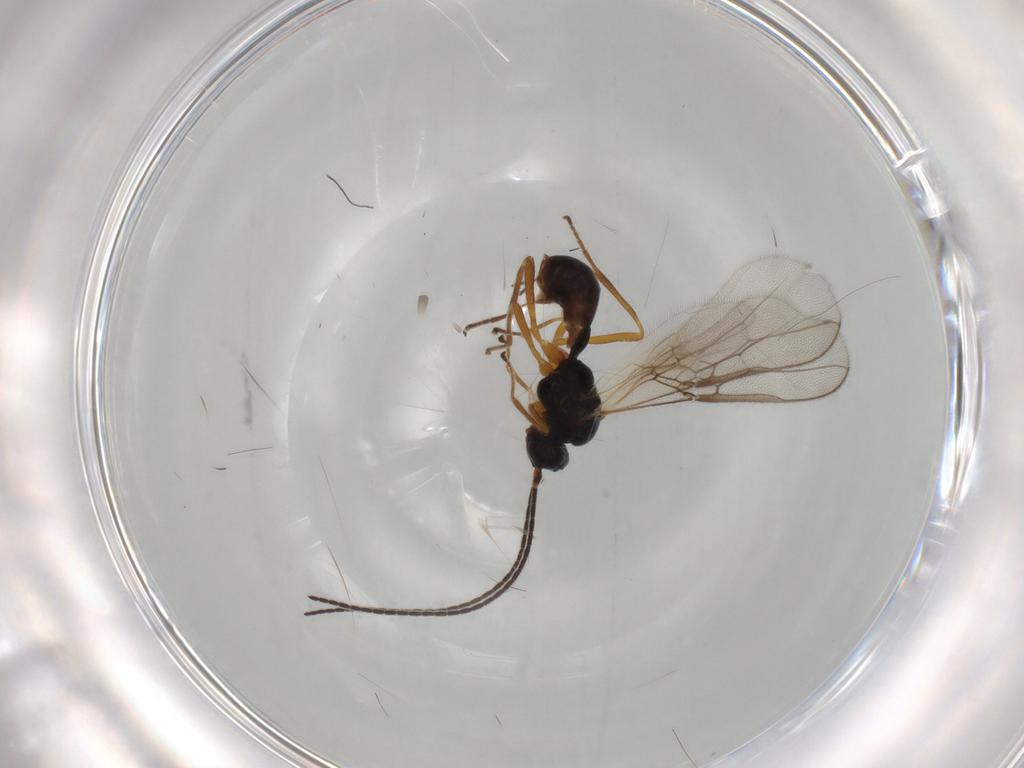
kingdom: Animalia
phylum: Arthropoda
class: Insecta
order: Hymenoptera
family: Braconidae
